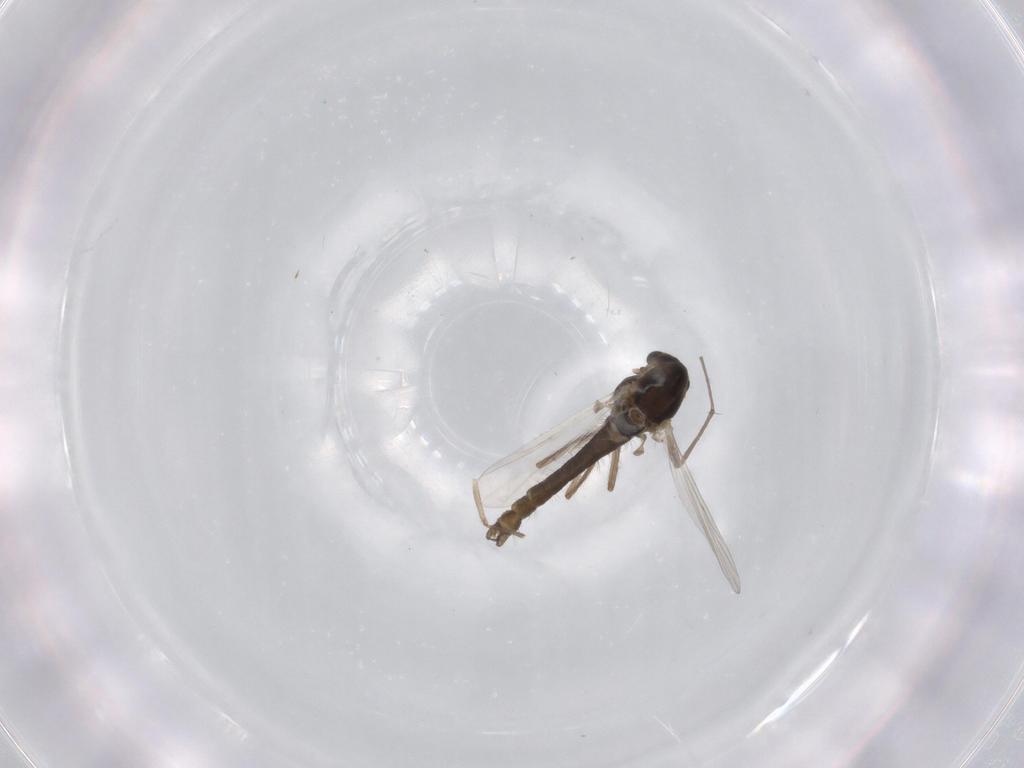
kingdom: Animalia
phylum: Arthropoda
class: Insecta
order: Diptera
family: Chironomidae
